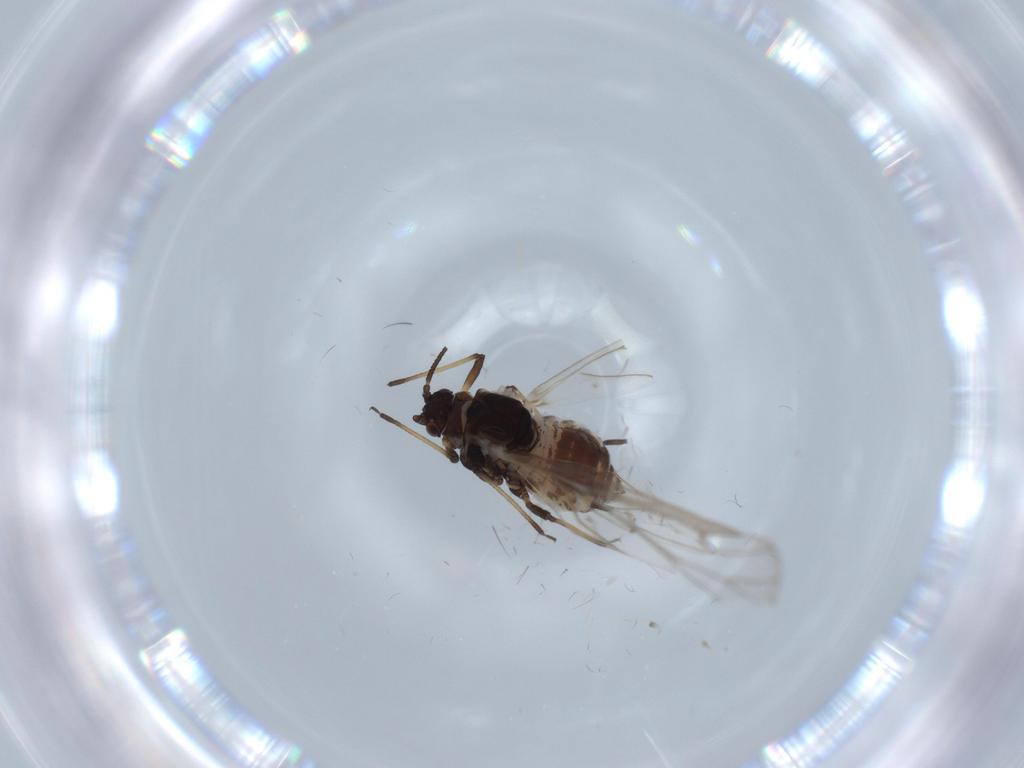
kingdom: Animalia
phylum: Arthropoda
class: Insecta
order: Hemiptera
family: Aphididae
